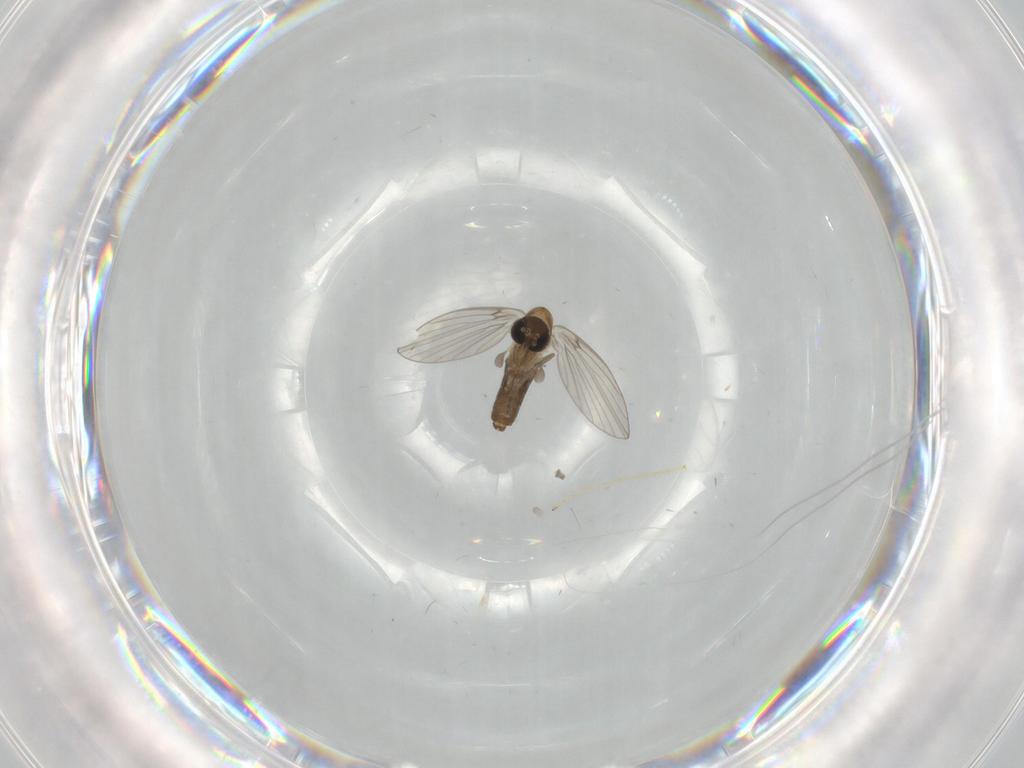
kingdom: Animalia
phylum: Arthropoda
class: Insecta
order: Diptera
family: Limoniidae
